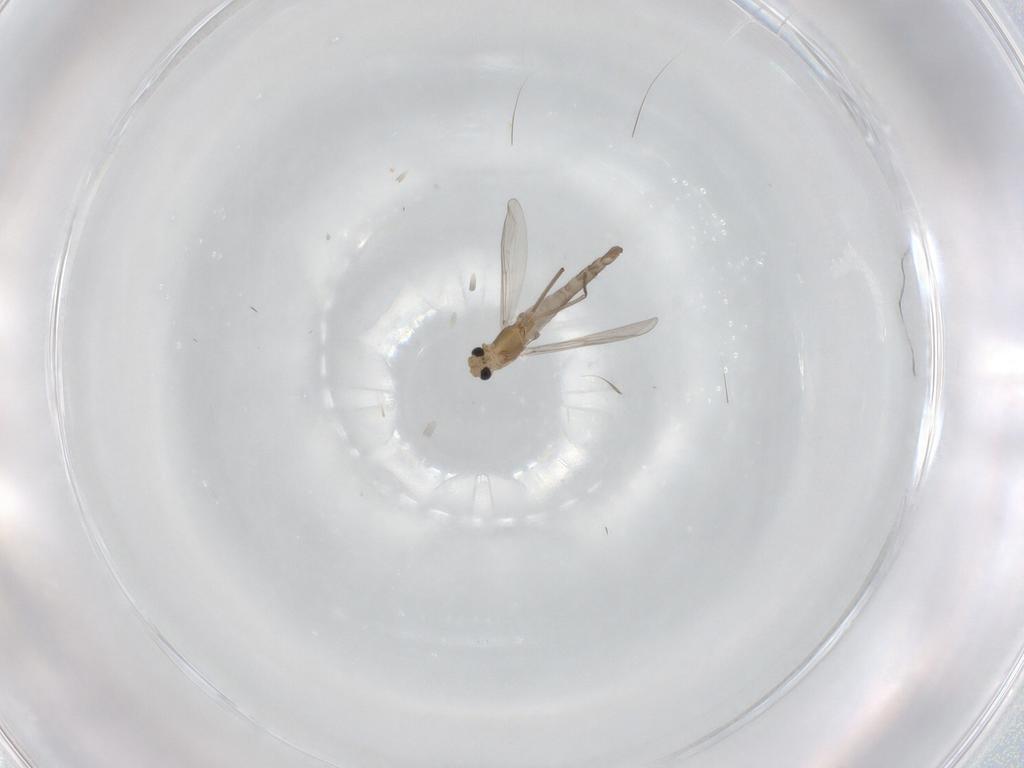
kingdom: Animalia
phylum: Arthropoda
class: Insecta
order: Diptera
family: Chironomidae
